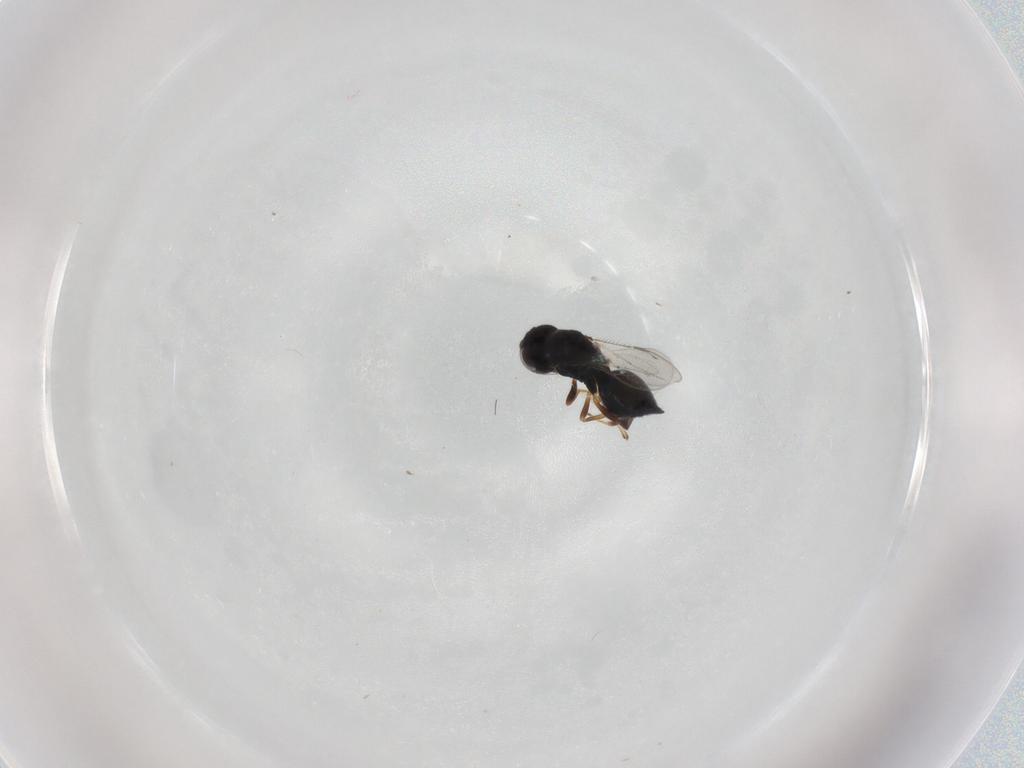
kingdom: Animalia
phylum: Arthropoda
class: Insecta
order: Hymenoptera
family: Pteromalidae
